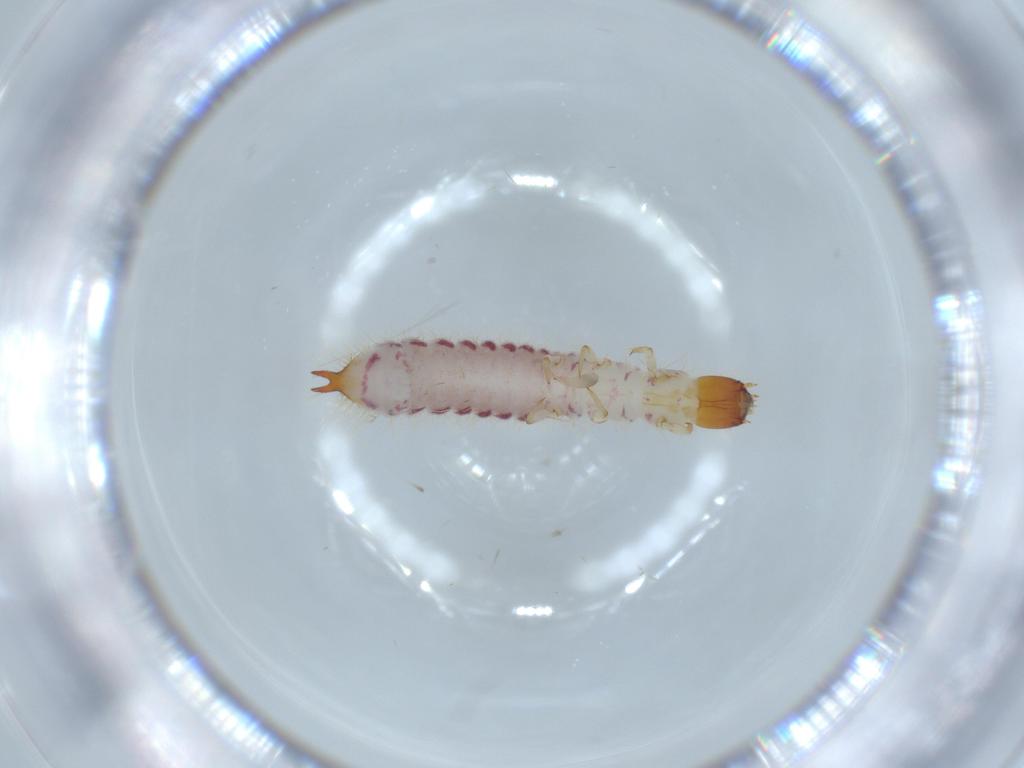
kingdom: Animalia
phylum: Arthropoda
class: Insecta
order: Coleoptera
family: Cleridae
